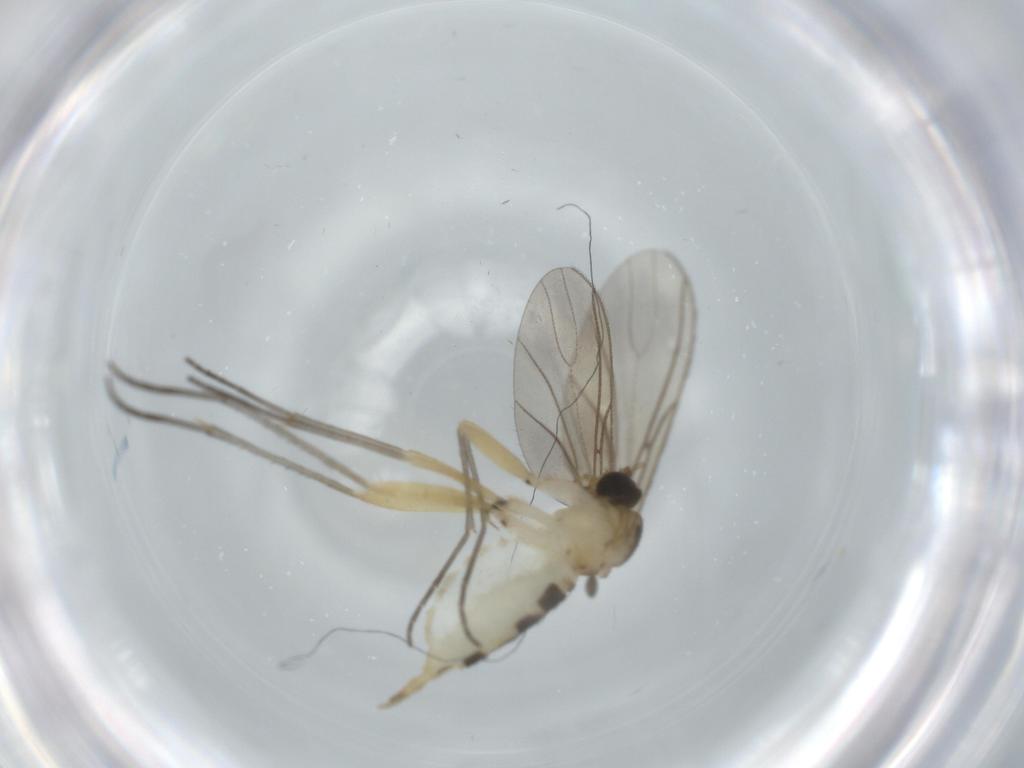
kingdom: Animalia
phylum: Arthropoda
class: Insecta
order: Diptera
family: Sciaridae
